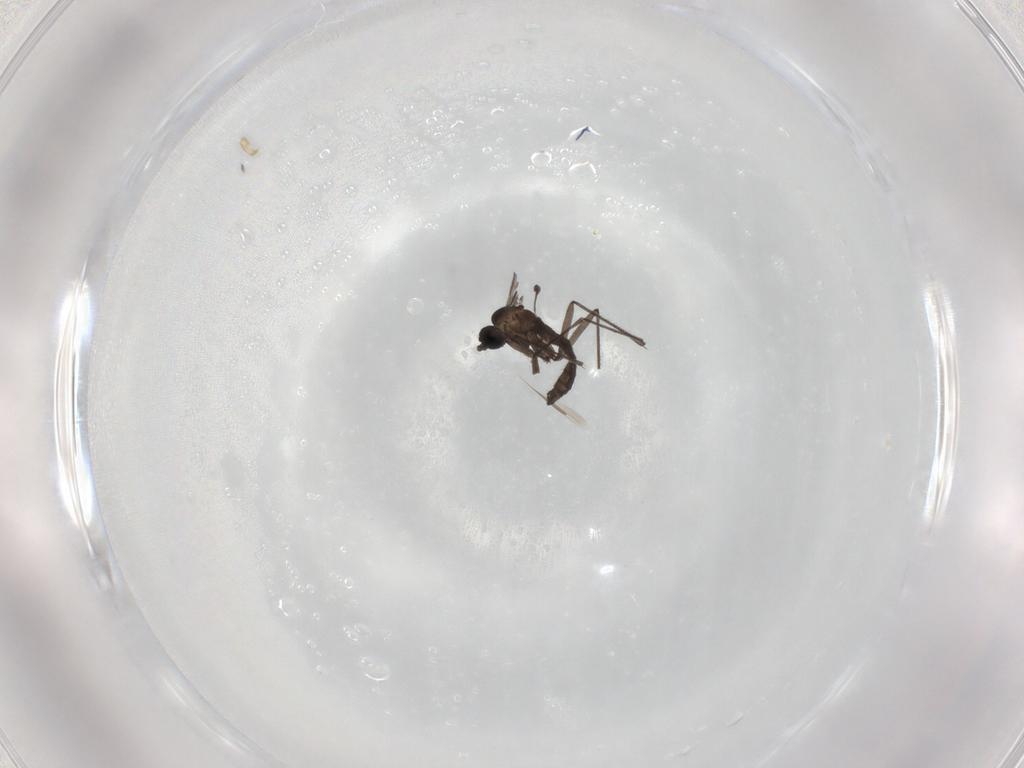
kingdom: Animalia
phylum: Arthropoda
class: Insecta
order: Diptera
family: Sciaridae
